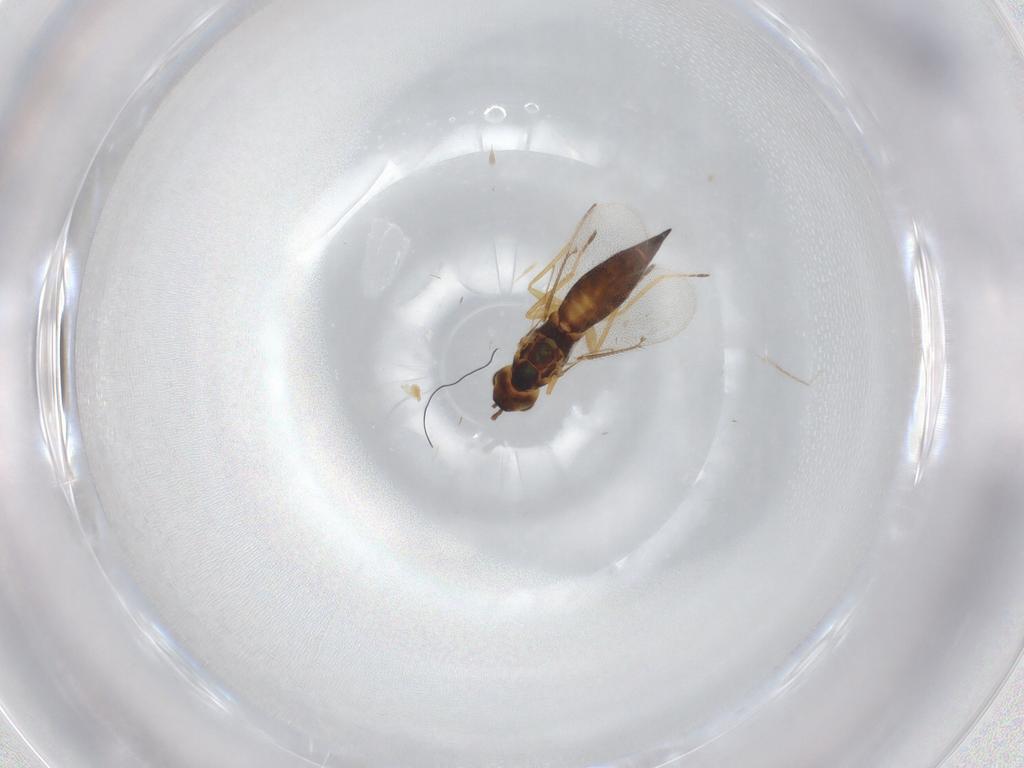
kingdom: Animalia
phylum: Arthropoda
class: Insecta
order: Hymenoptera
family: Eulophidae
